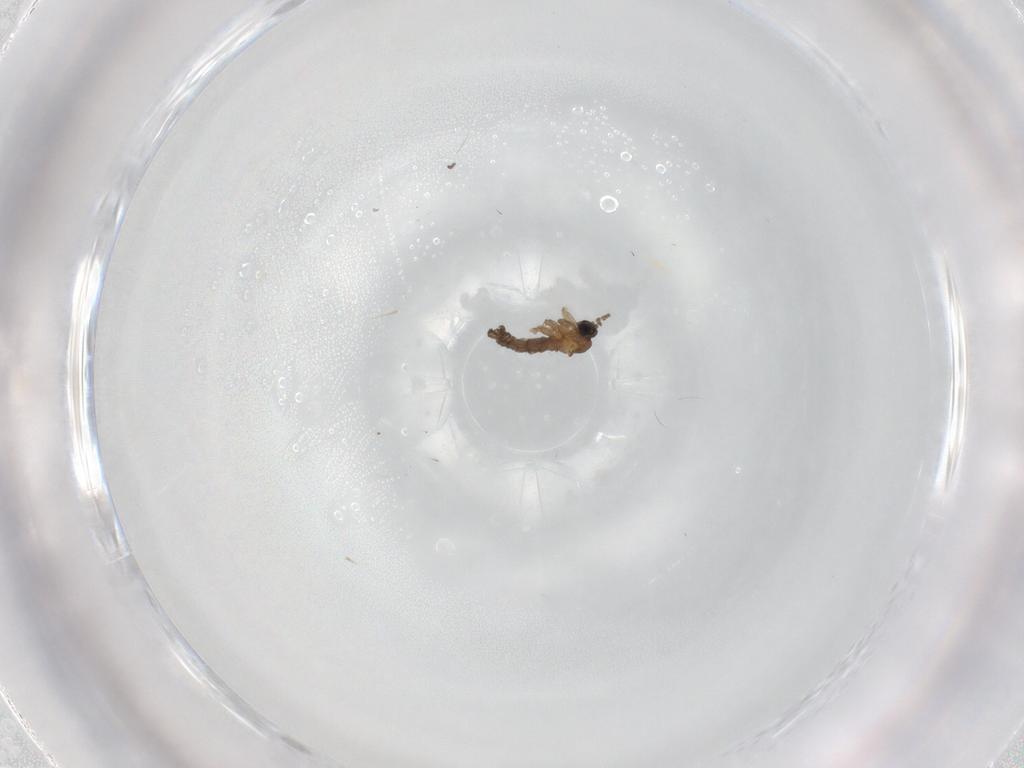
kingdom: Animalia
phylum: Arthropoda
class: Insecta
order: Diptera
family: Sciaridae
